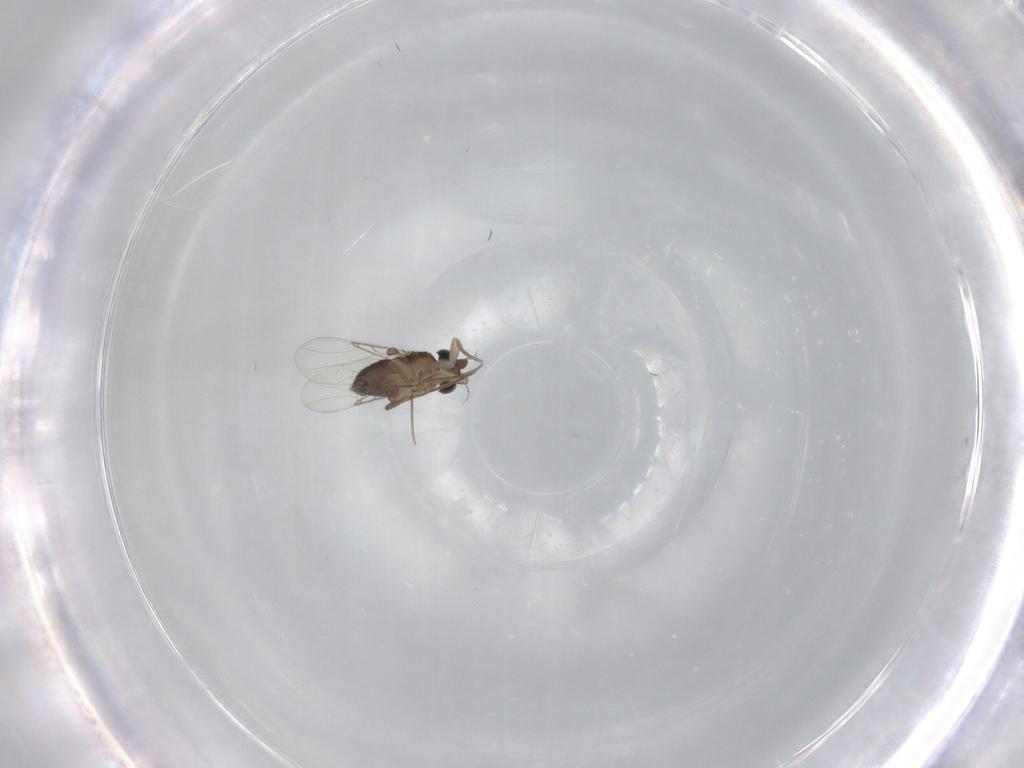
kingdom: Animalia
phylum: Arthropoda
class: Insecta
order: Diptera
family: Phoridae
